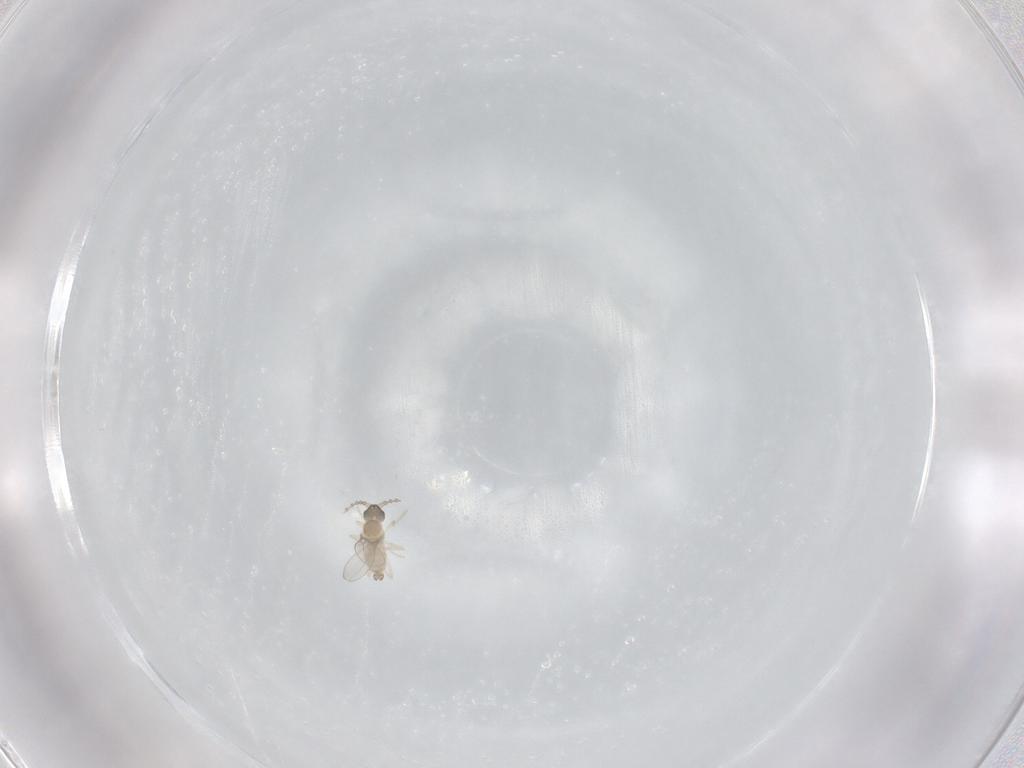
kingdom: Animalia
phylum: Arthropoda
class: Insecta
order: Diptera
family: Cecidomyiidae
